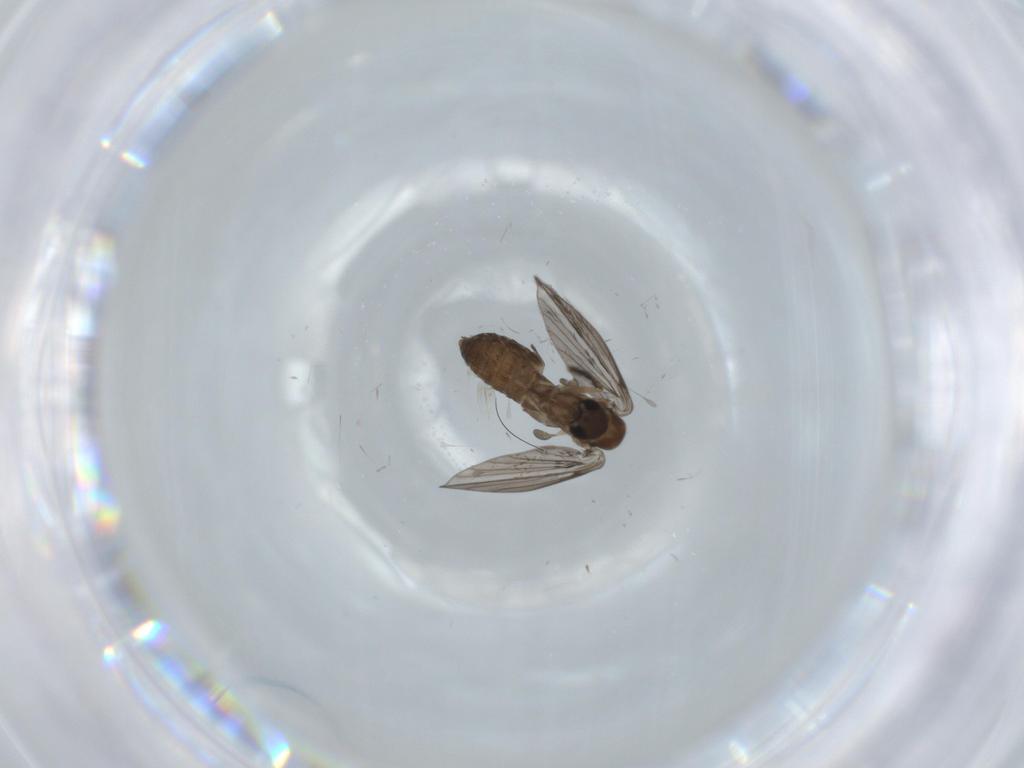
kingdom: Animalia
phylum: Arthropoda
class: Insecta
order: Diptera
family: Psychodidae
